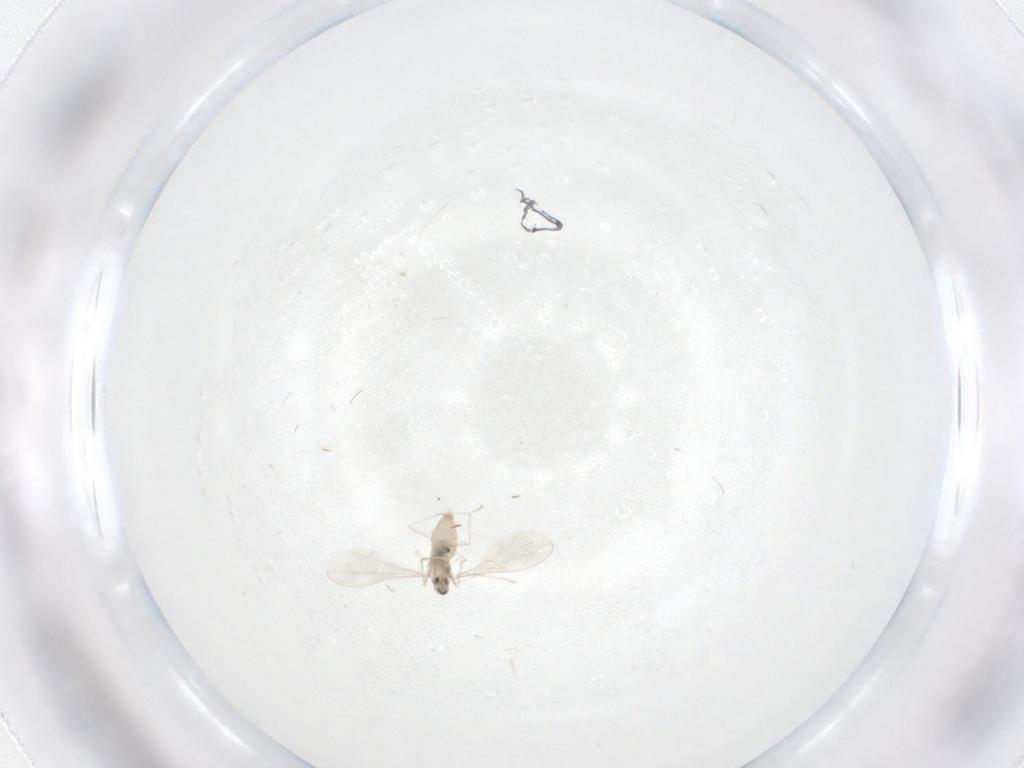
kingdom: Animalia
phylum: Arthropoda
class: Insecta
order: Diptera
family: Cecidomyiidae
